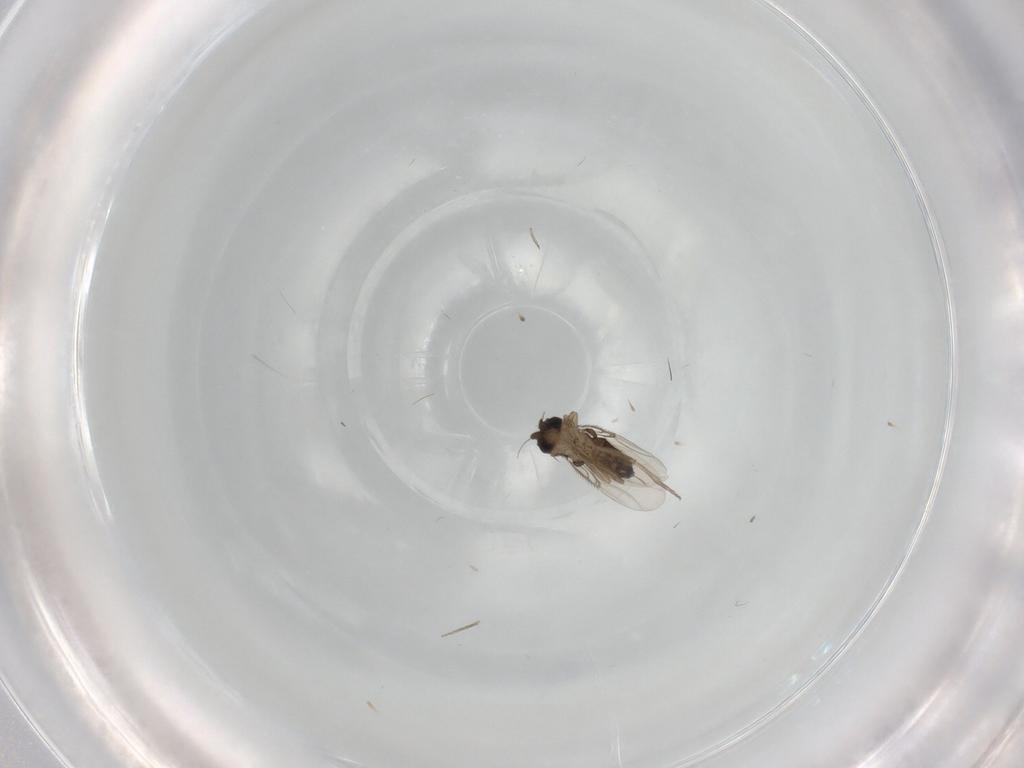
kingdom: Animalia
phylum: Arthropoda
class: Insecta
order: Diptera
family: Phoridae
